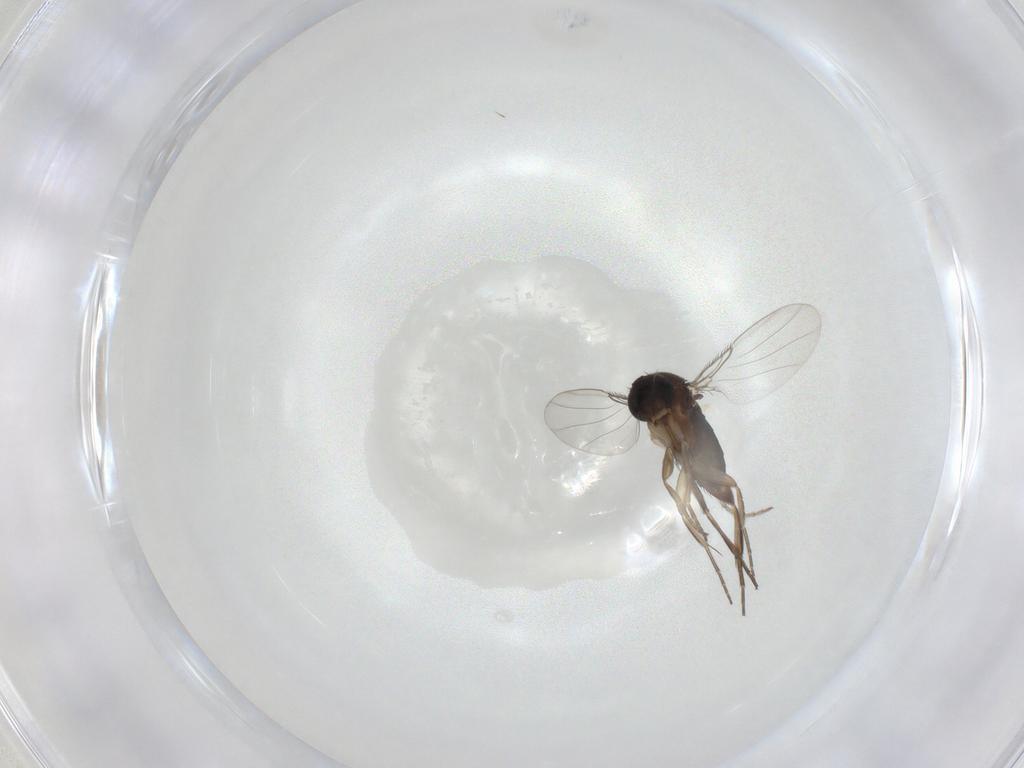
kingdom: Animalia
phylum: Arthropoda
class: Insecta
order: Diptera
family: Phoridae
